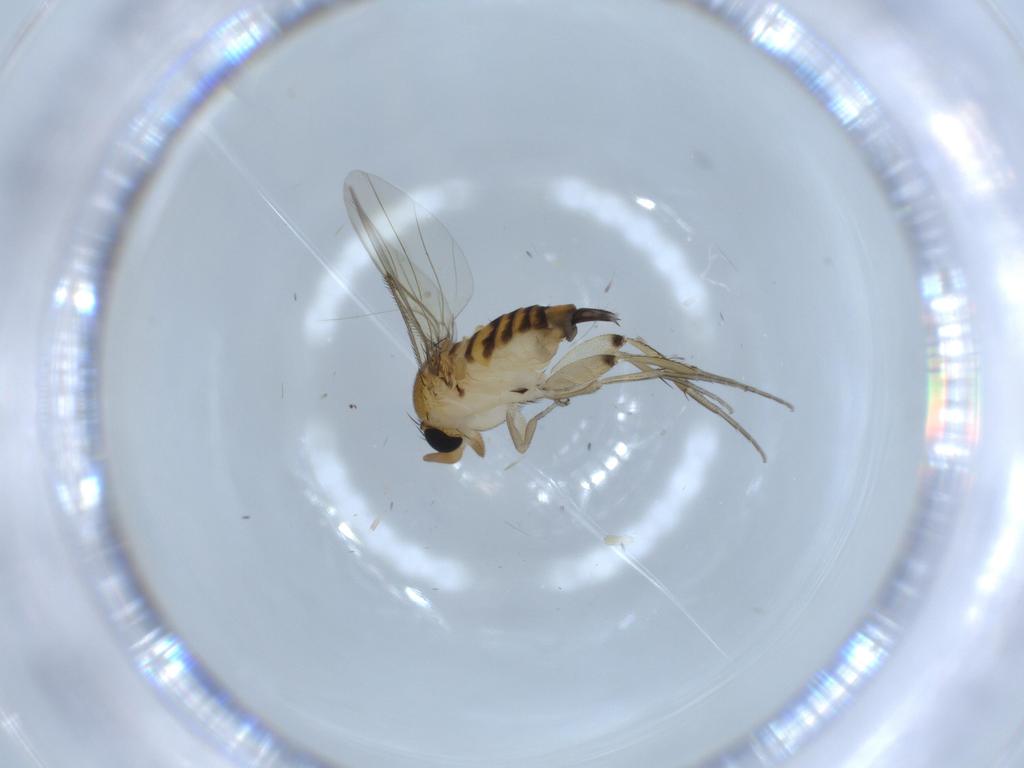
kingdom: Animalia
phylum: Arthropoda
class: Insecta
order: Diptera
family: Phoridae
